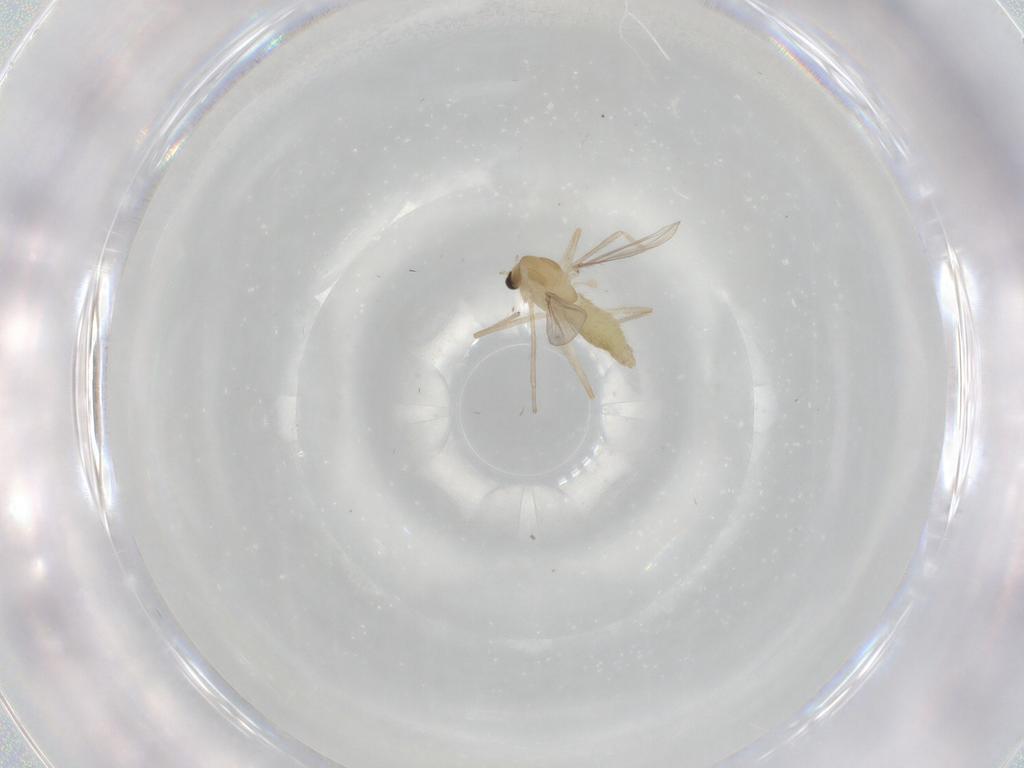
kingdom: Animalia
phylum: Arthropoda
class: Insecta
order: Diptera
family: Chironomidae
